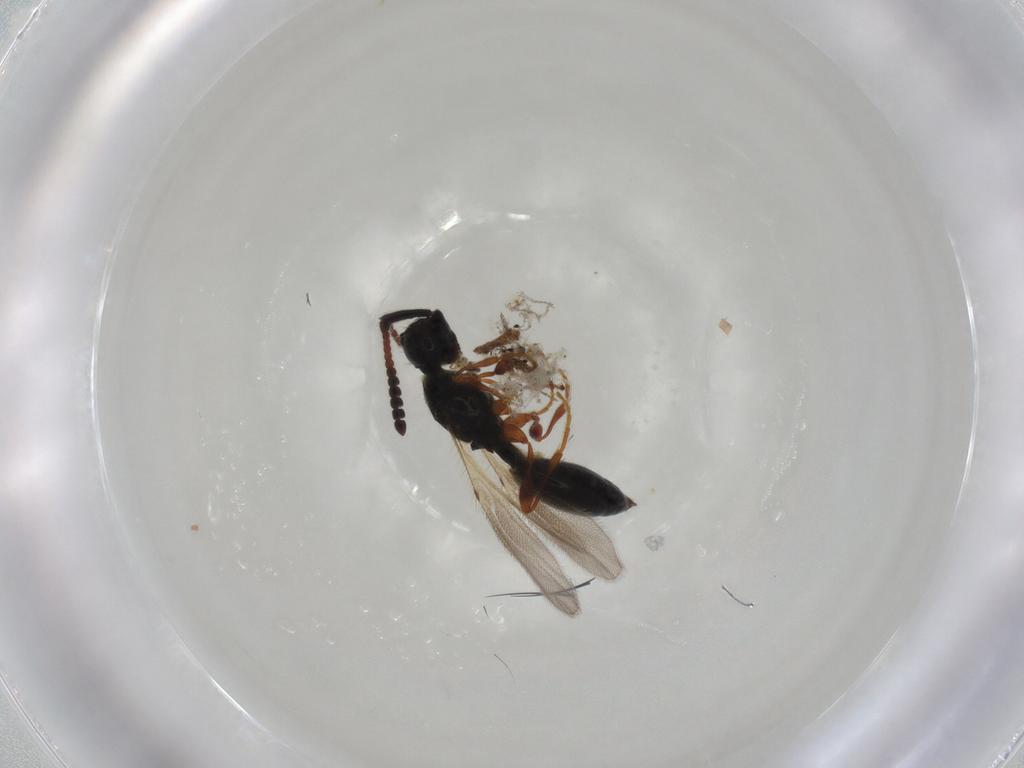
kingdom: Animalia
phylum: Arthropoda
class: Insecta
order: Hymenoptera
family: Diapriidae
